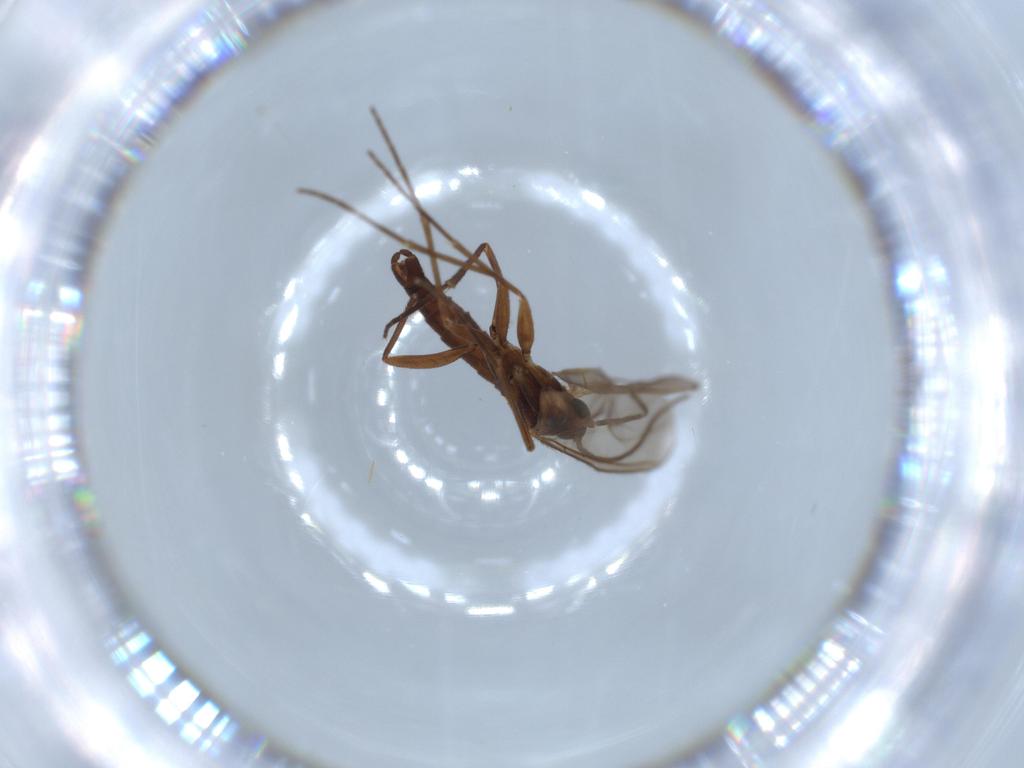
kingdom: Animalia
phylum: Arthropoda
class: Insecta
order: Diptera
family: Sciaridae
